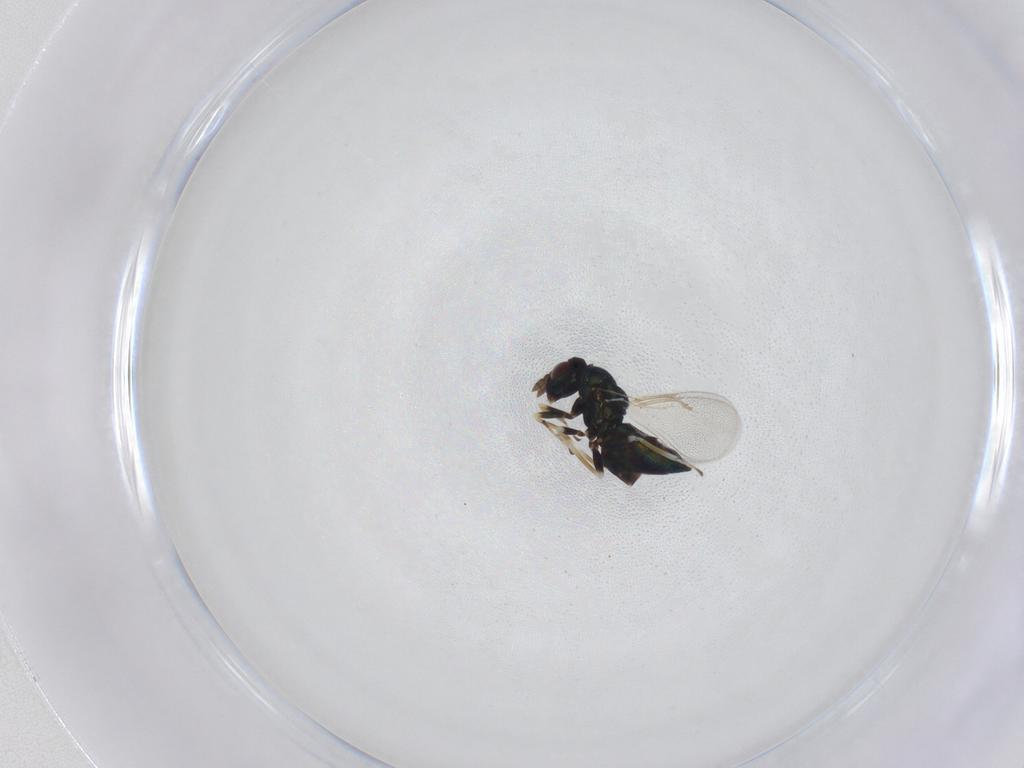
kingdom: Animalia
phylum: Arthropoda
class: Insecta
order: Hymenoptera
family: Eulophidae
